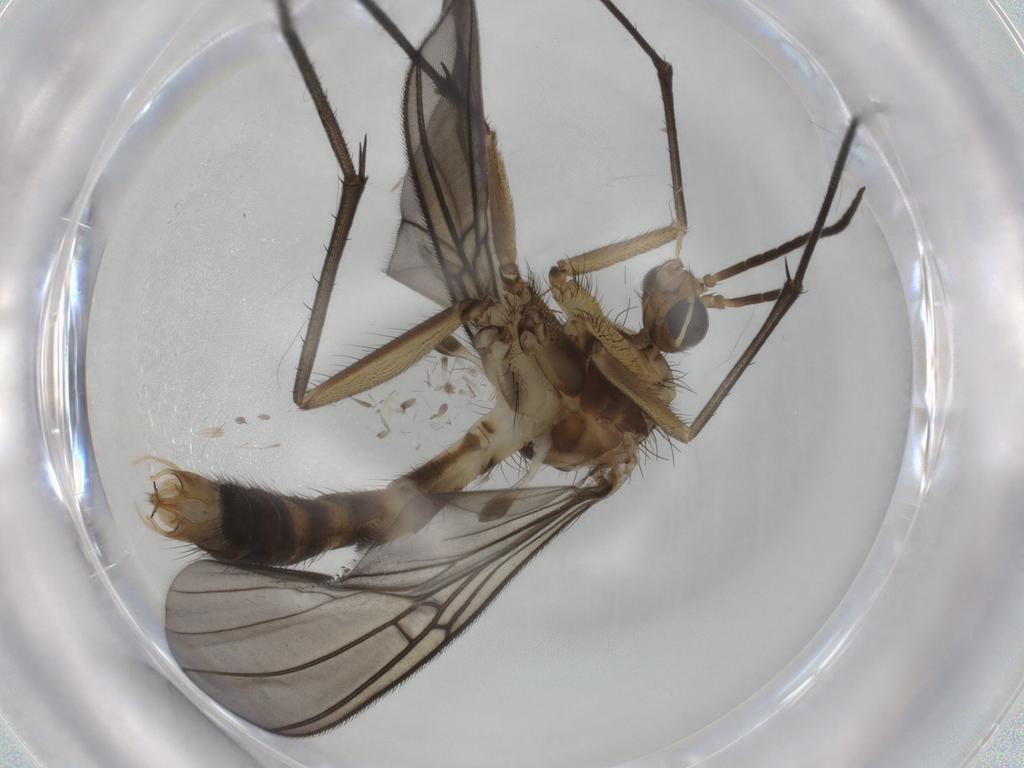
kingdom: Animalia
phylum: Arthropoda
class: Insecta
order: Diptera
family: Mycetophilidae
